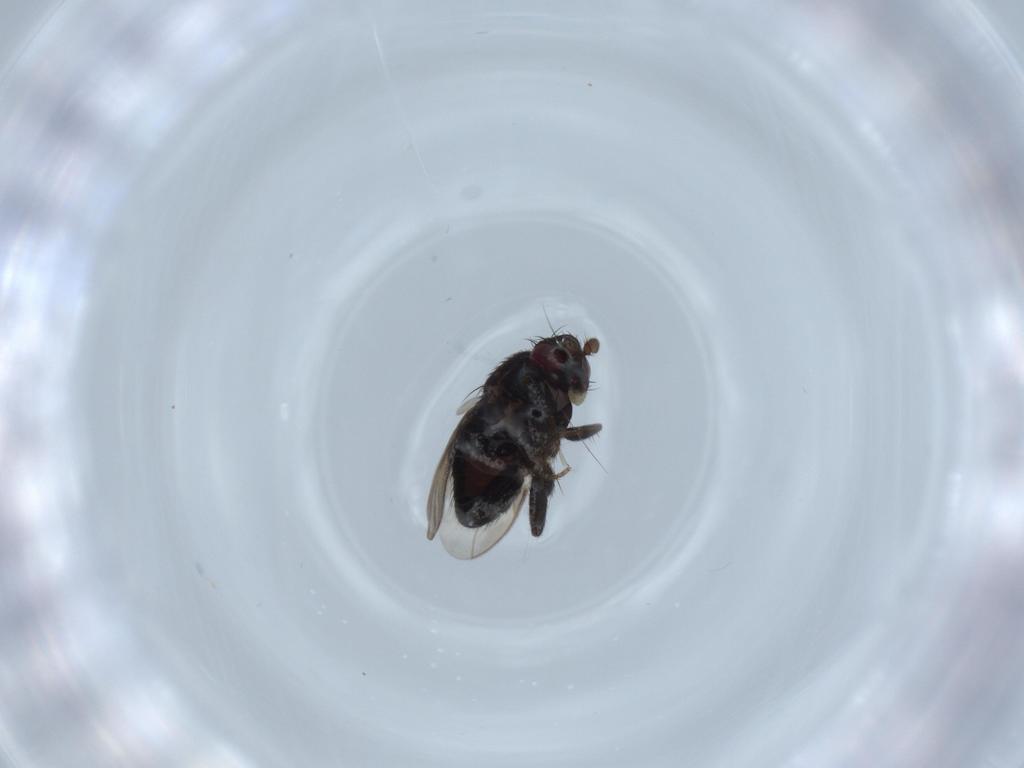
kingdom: Animalia
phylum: Arthropoda
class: Insecta
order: Diptera
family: Sphaeroceridae
